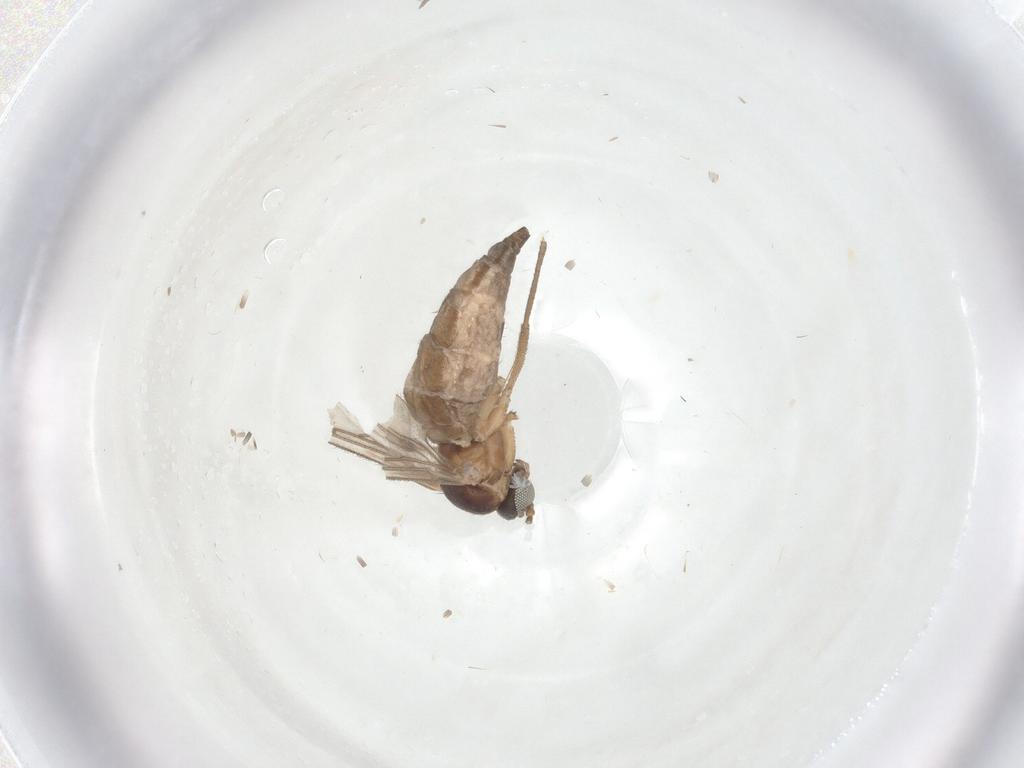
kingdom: Animalia
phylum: Arthropoda
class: Insecta
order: Diptera
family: Sciaridae
